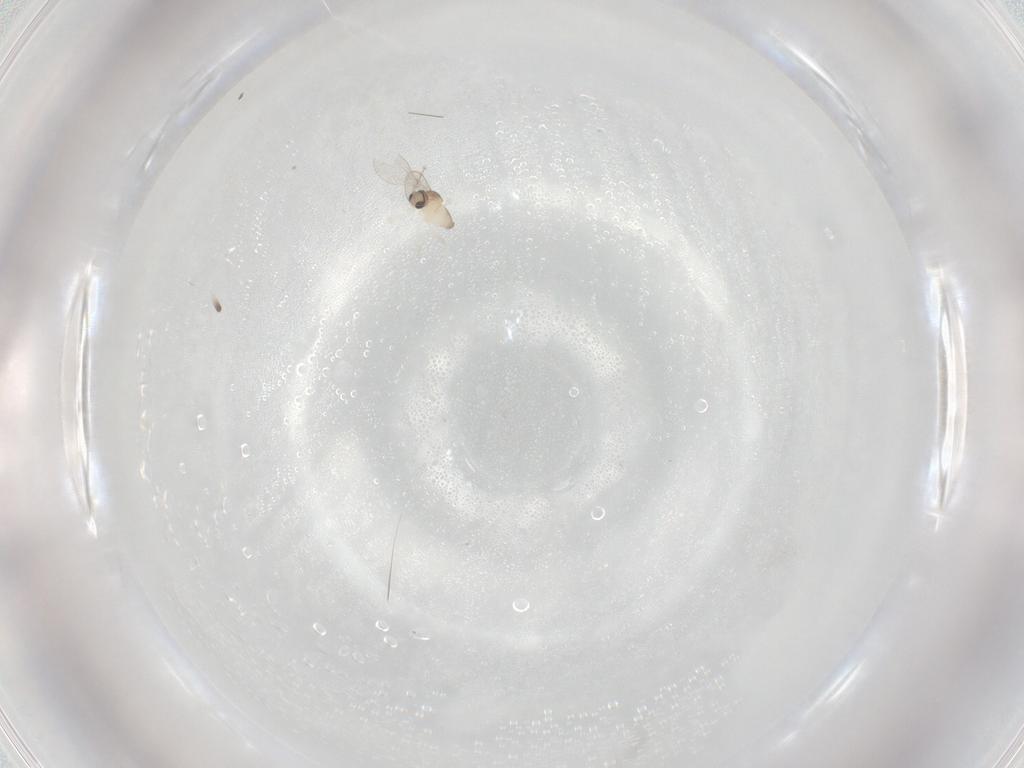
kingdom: Animalia
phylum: Arthropoda
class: Insecta
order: Diptera
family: Cecidomyiidae
